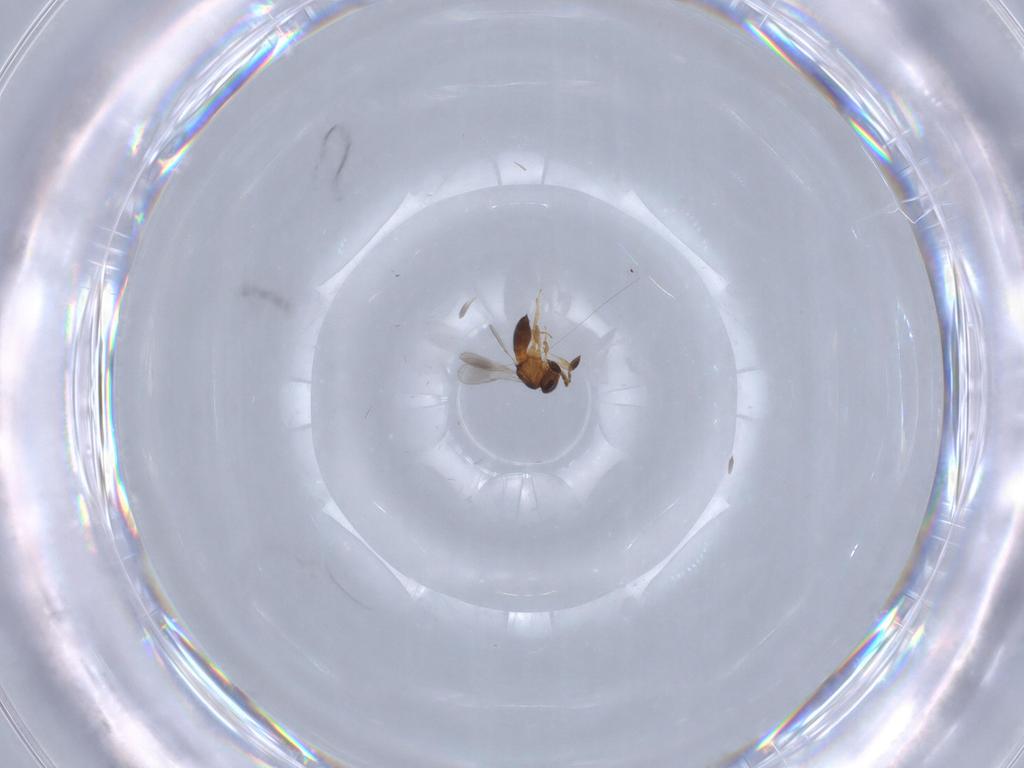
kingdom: Animalia
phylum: Arthropoda
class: Insecta
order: Hymenoptera
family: Scelionidae
